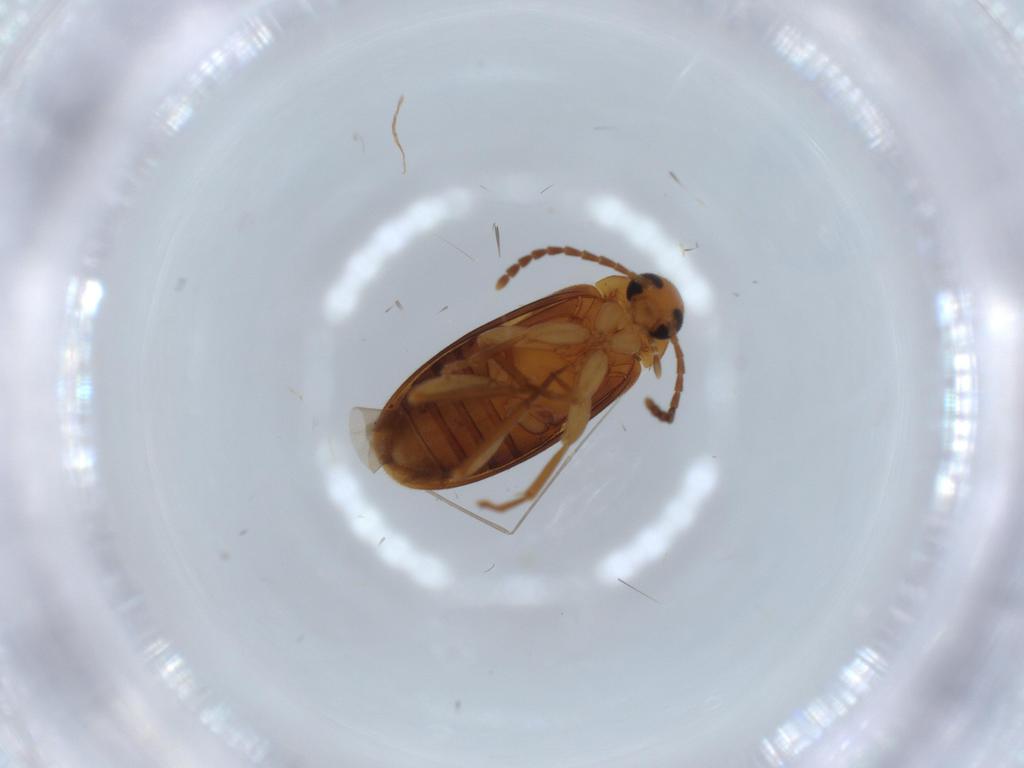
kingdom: Animalia
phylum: Arthropoda
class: Insecta
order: Coleoptera
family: Scraptiidae
